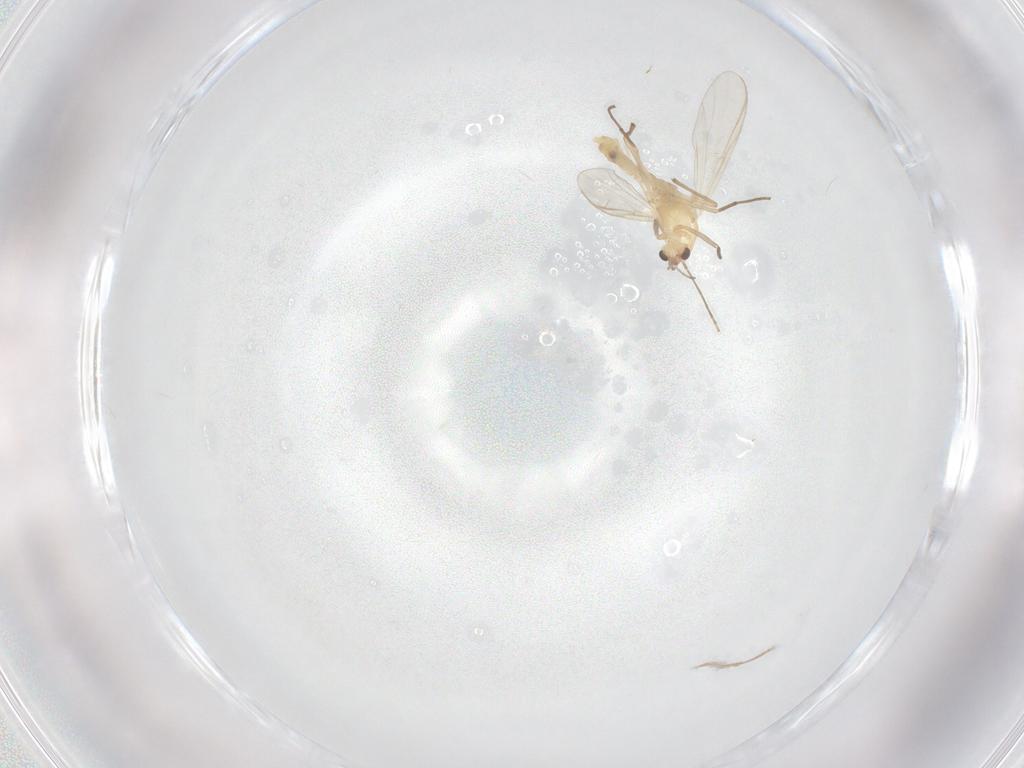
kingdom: Animalia
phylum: Arthropoda
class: Insecta
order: Diptera
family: Chironomidae
